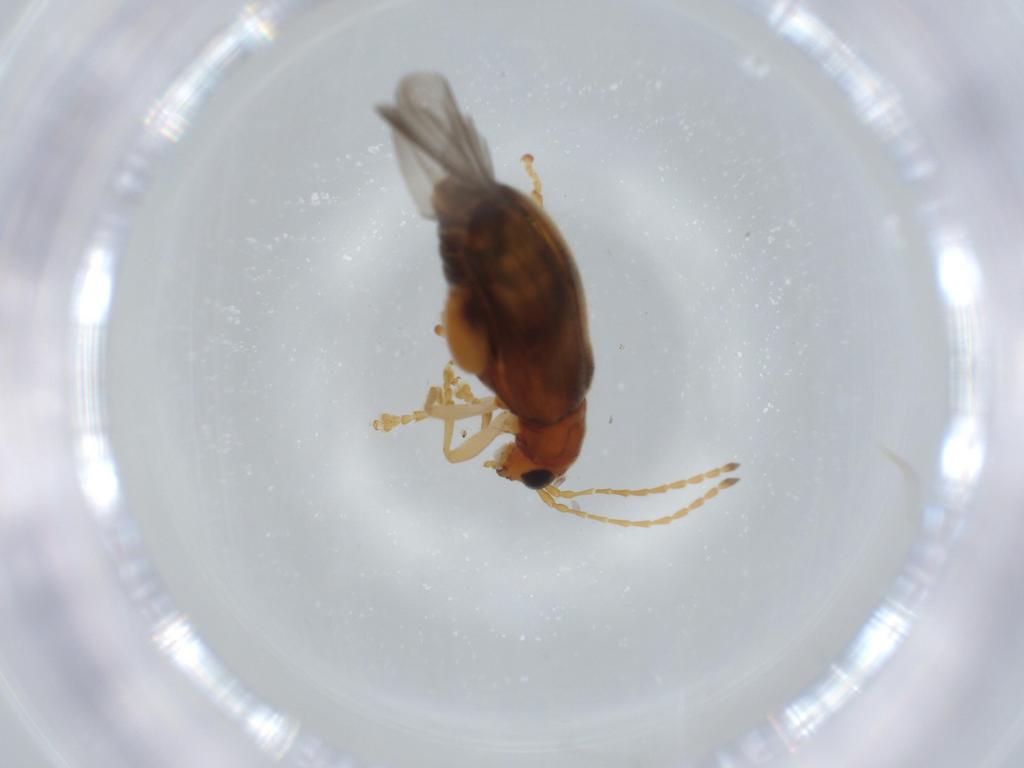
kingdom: Animalia
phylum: Arthropoda
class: Insecta
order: Coleoptera
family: Chrysomelidae
